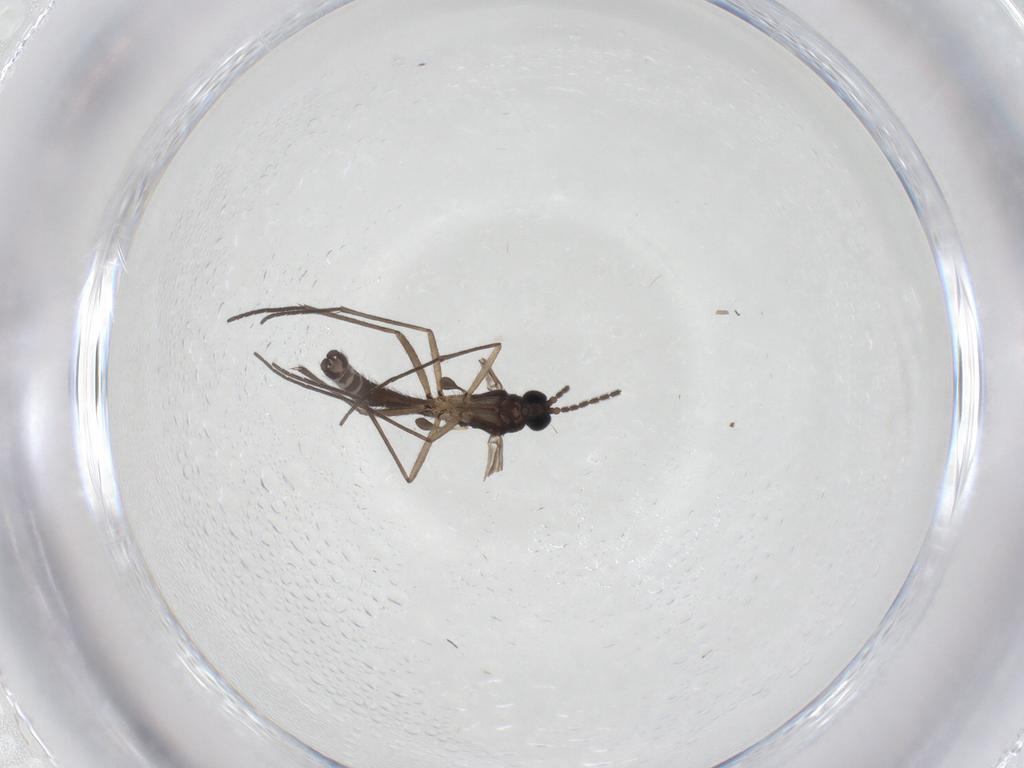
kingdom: Animalia
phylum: Arthropoda
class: Insecta
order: Diptera
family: Sciaridae
